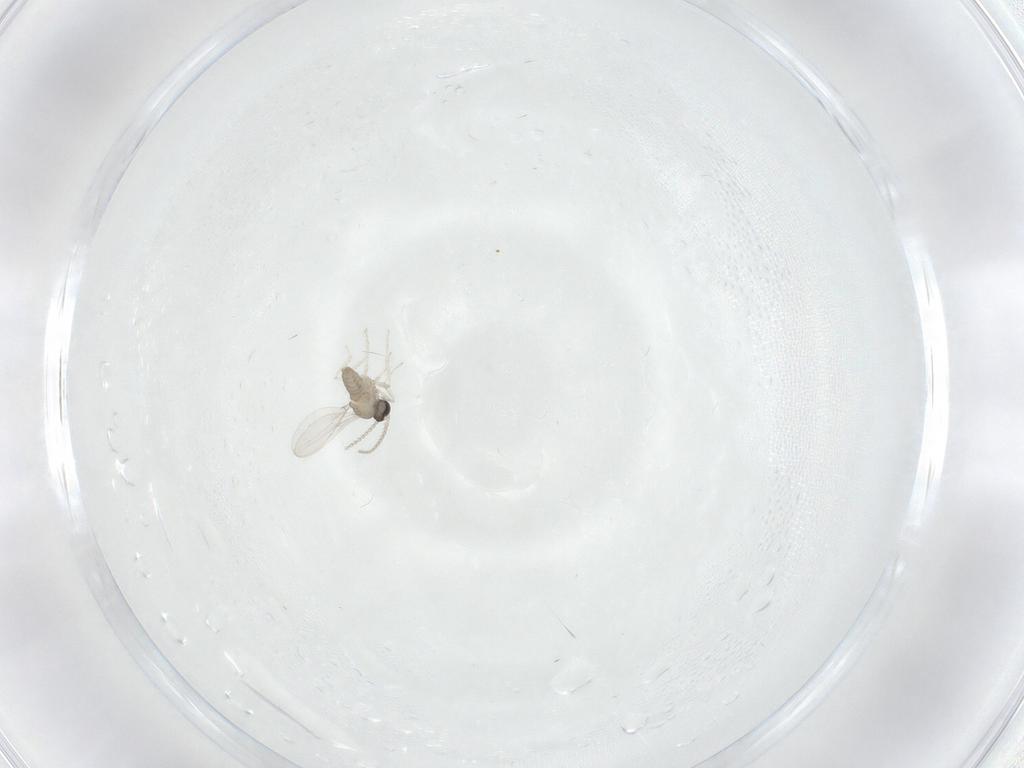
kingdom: Animalia
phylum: Arthropoda
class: Insecta
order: Diptera
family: Cecidomyiidae
